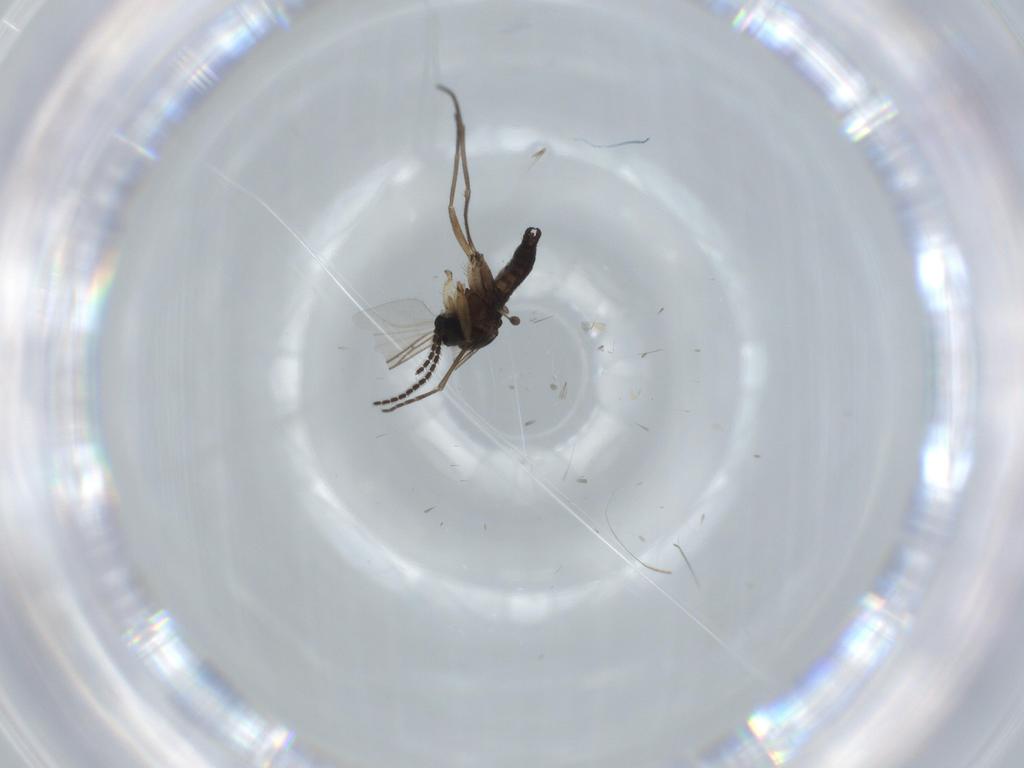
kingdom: Animalia
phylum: Arthropoda
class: Insecta
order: Diptera
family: Sciaridae
